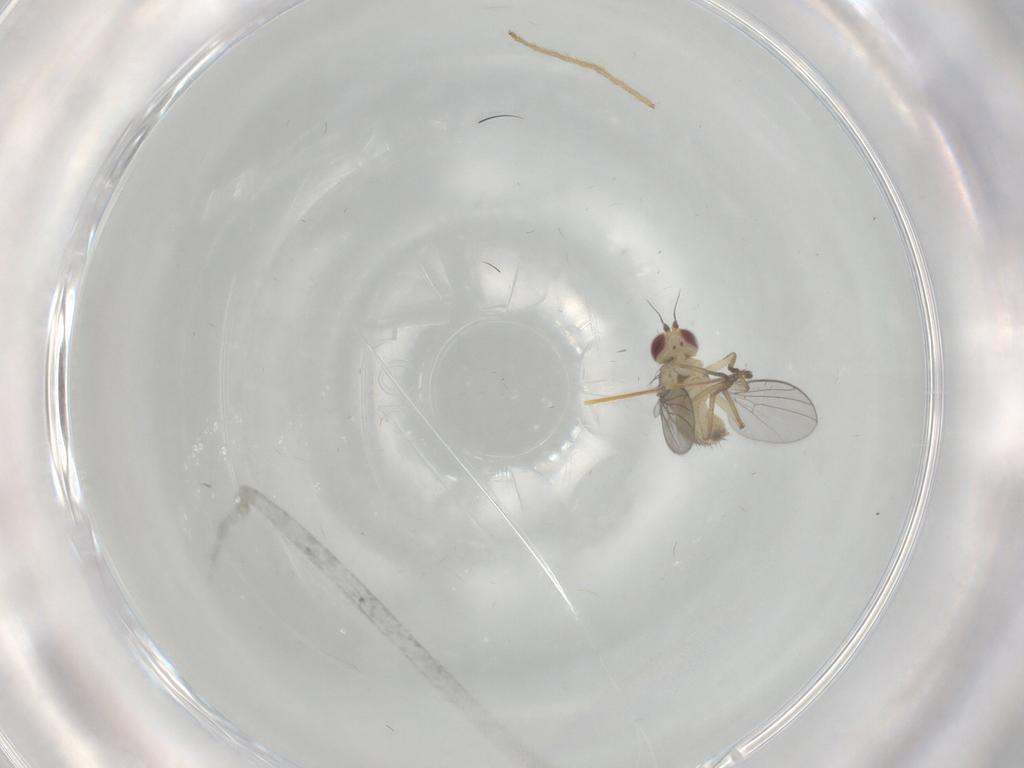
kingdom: Animalia
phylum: Arthropoda
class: Insecta
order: Diptera
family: Agromyzidae
